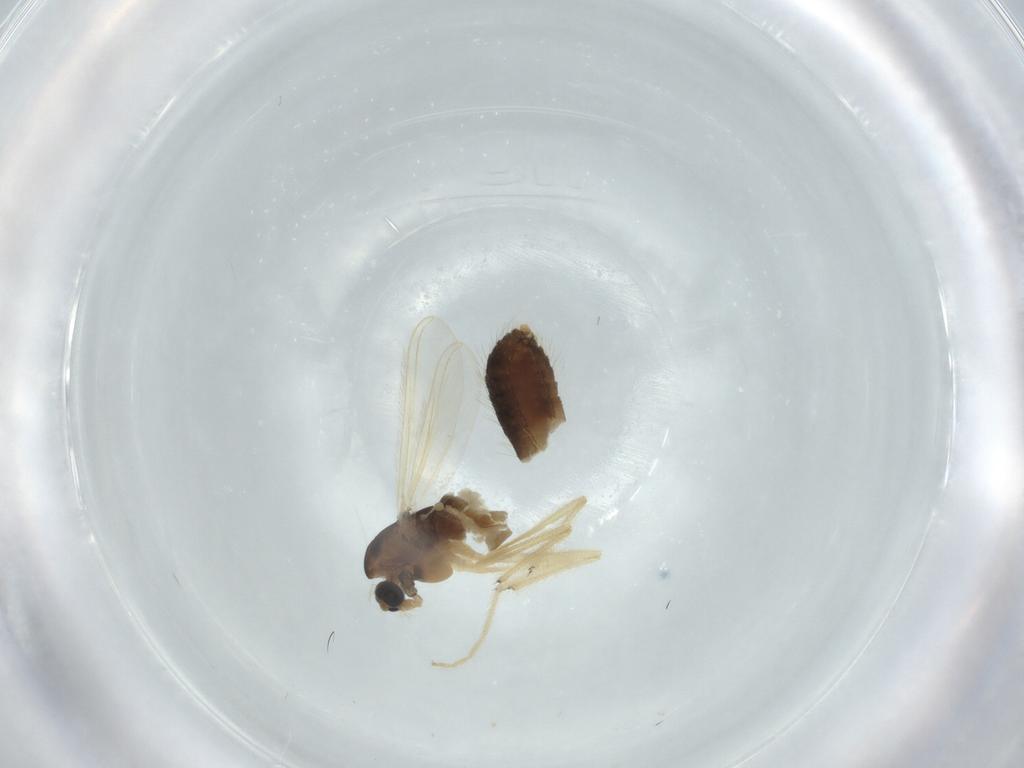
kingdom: Animalia
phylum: Arthropoda
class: Insecta
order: Diptera
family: Chironomidae
